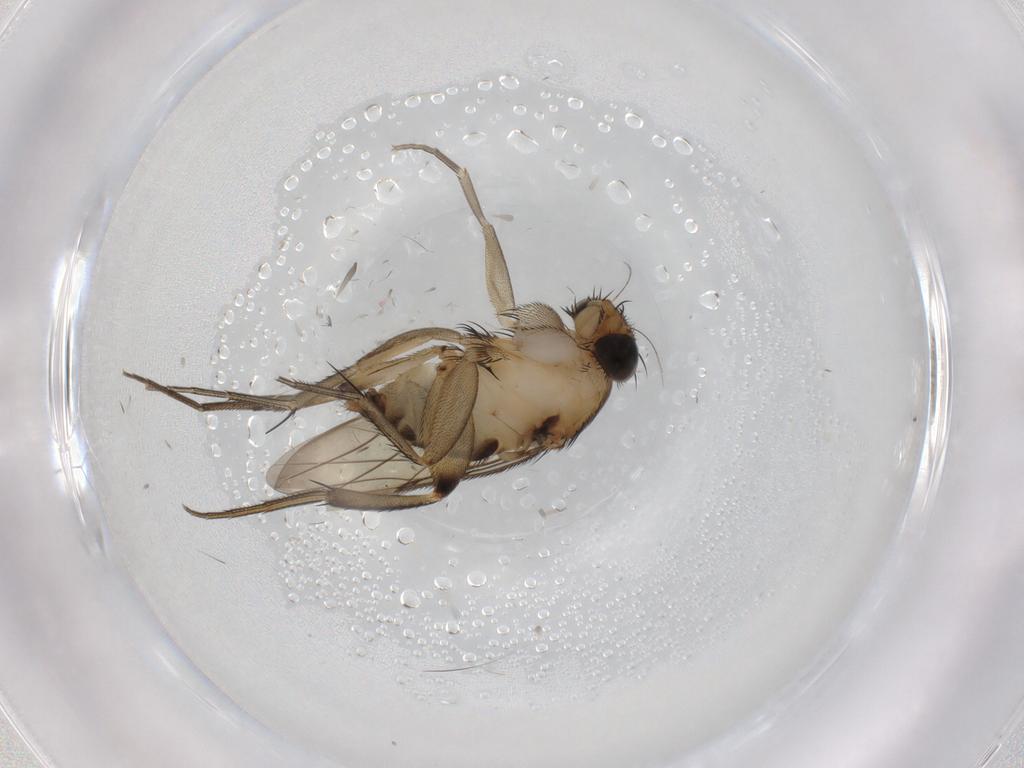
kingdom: Animalia
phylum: Arthropoda
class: Insecta
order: Diptera
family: Phoridae
